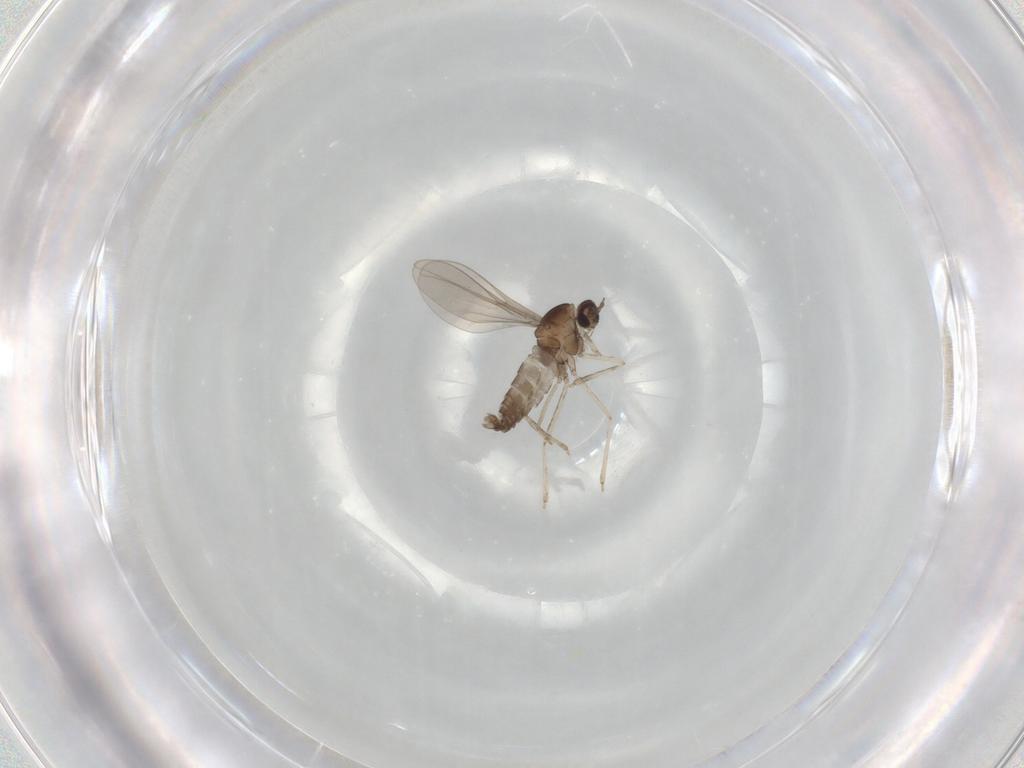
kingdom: Animalia
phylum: Arthropoda
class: Insecta
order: Diptera
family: Cecidomyiidae
